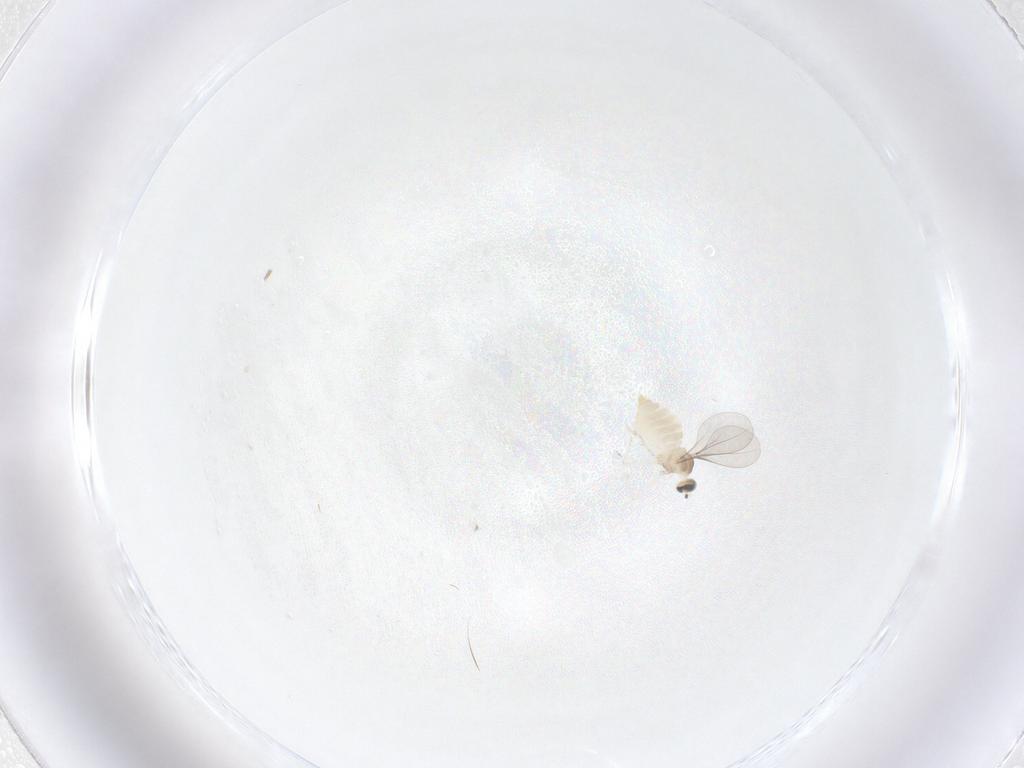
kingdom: Animalia
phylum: Arthropoda
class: Insecta
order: Diptera
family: Cecidomyiidae
